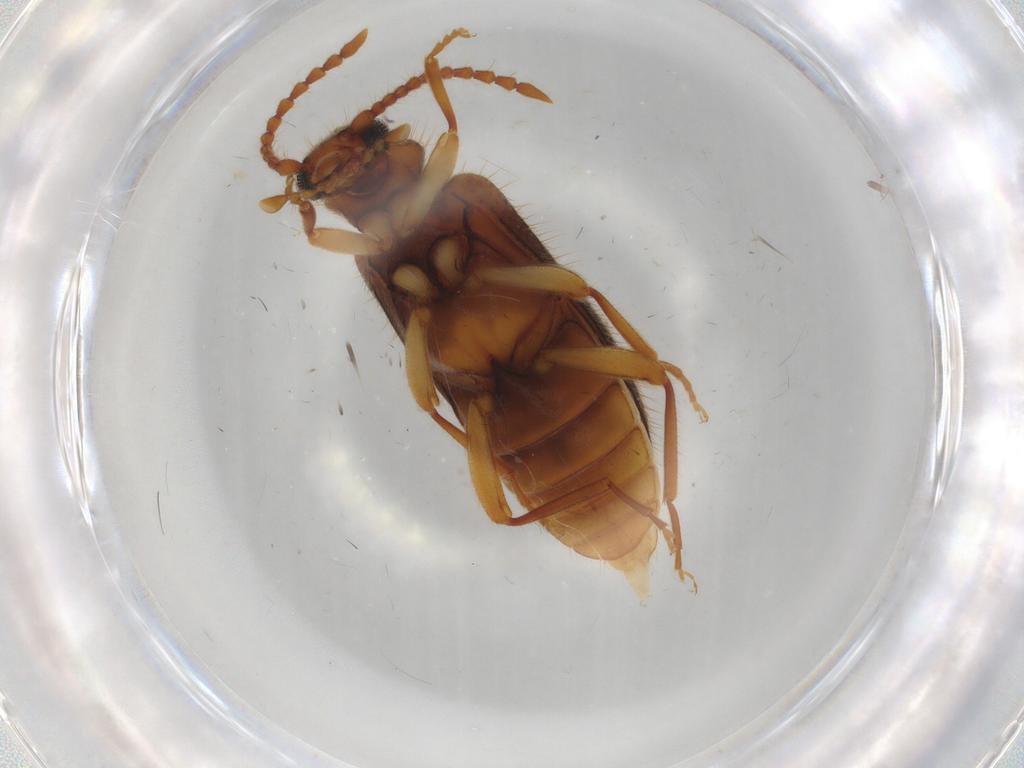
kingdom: Animalia
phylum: Arthropoda
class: Insecta
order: Coleoptera
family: Anthicidae
